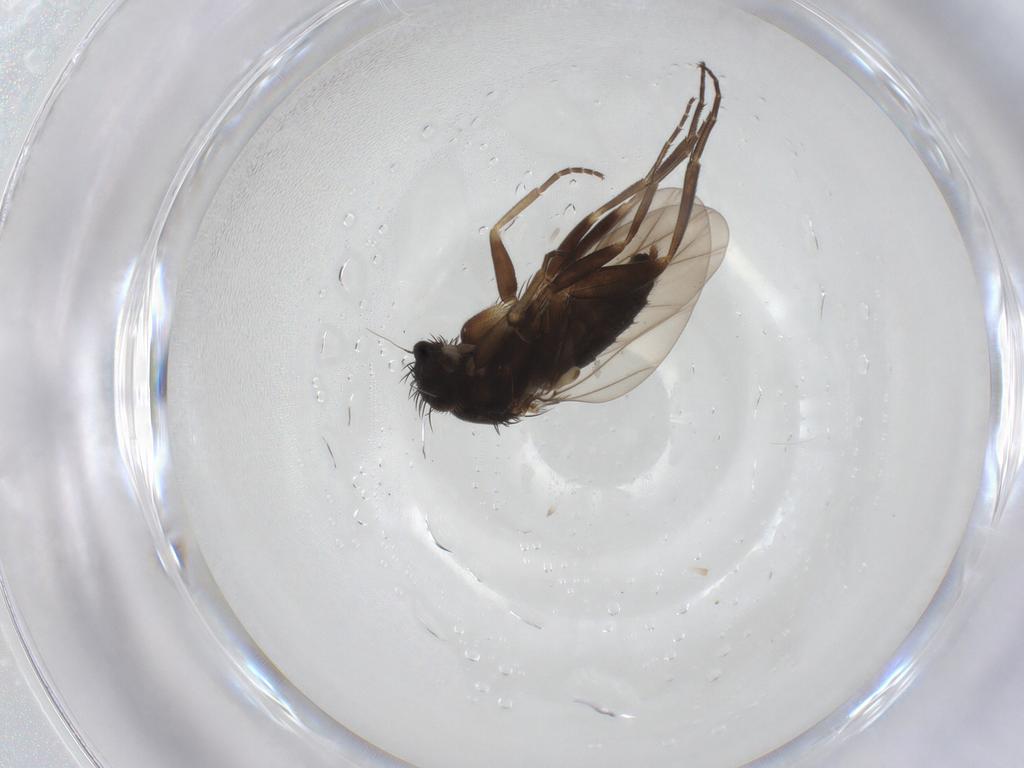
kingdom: Animalia
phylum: Arthropoda
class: Insecta
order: Diptera
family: Phoridae
